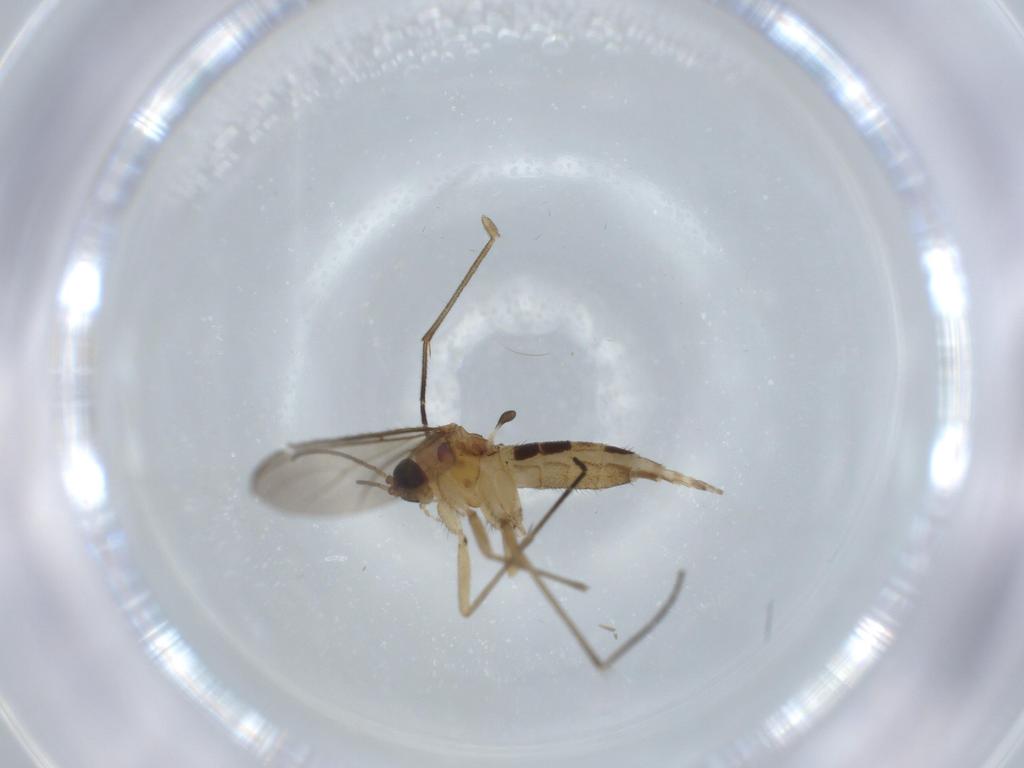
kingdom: Animalia
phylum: Arthropoda
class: Insecta
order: Diptera
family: Sciaridae
